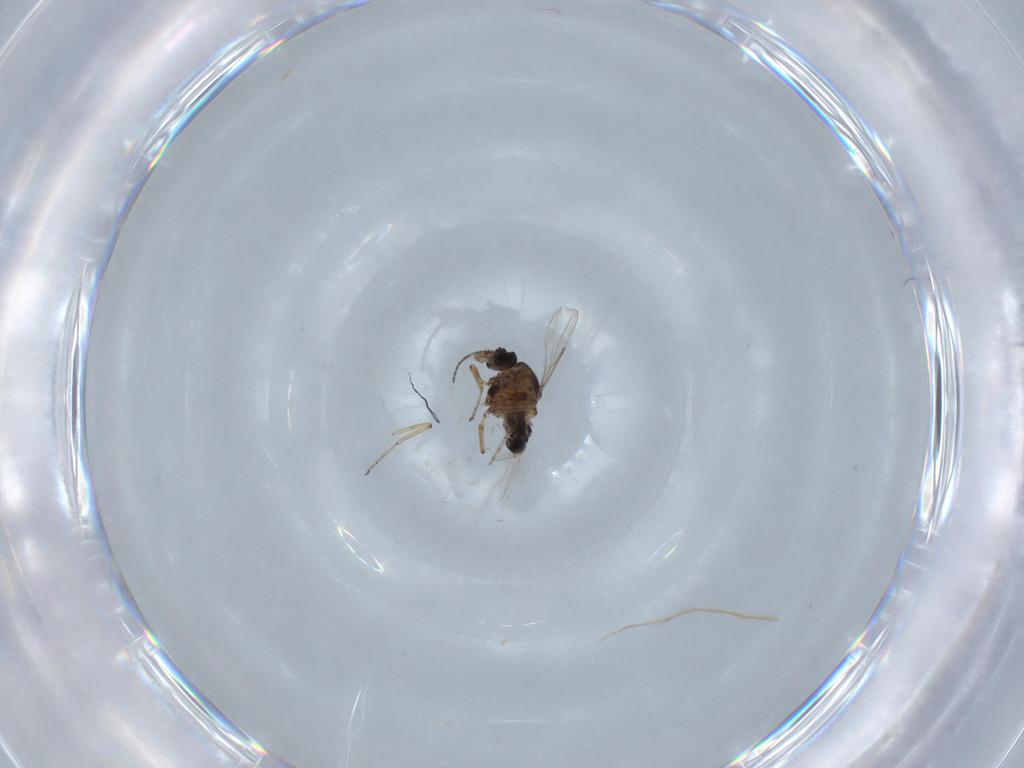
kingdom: Animalia
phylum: Arthropoda
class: Insecta
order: Diptera
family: Ceratopogonidae
